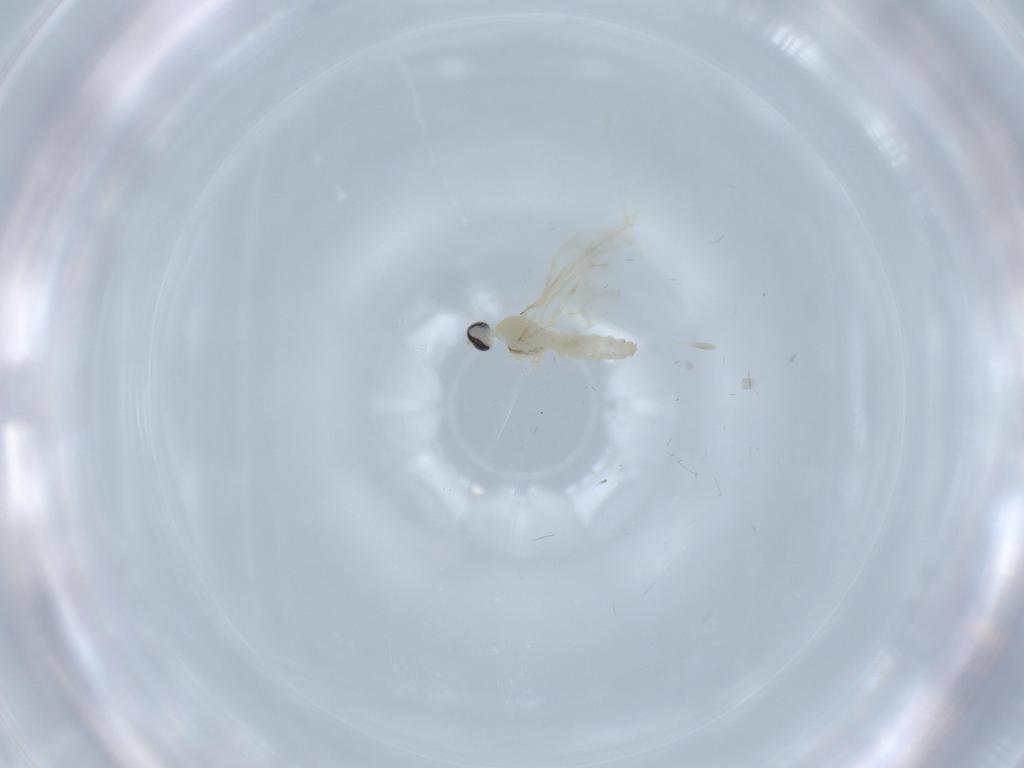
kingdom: Animalia
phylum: Arthropoda
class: Insecta
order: Diptera
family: Cecidomyiidae
